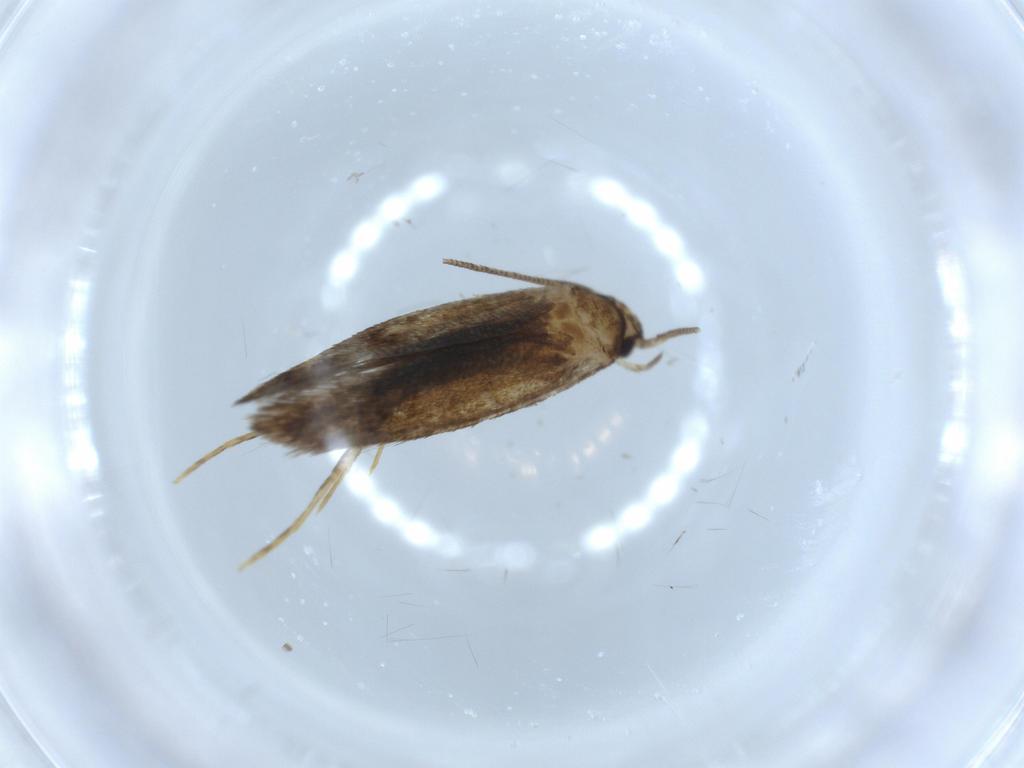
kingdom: Animalia
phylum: Arthropoda
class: Insecta
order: Lepidoptera
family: Tineidae
